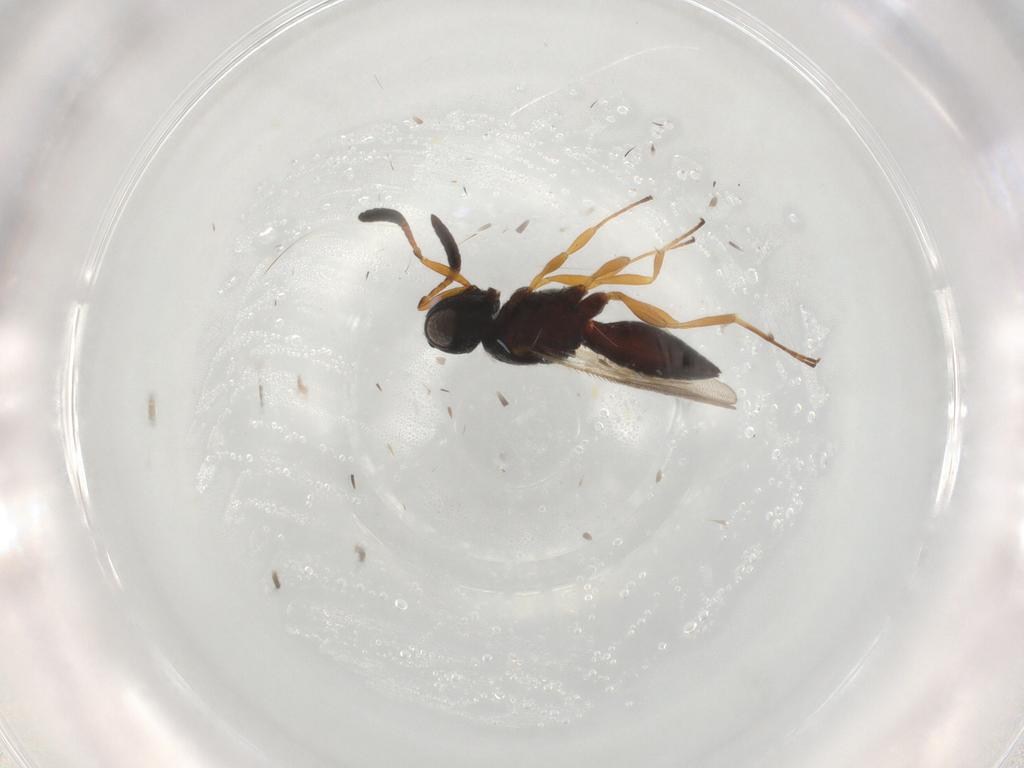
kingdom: Animalia
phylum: Arthropoda
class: Insecta
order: Hymenoptera
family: Scelionidae
